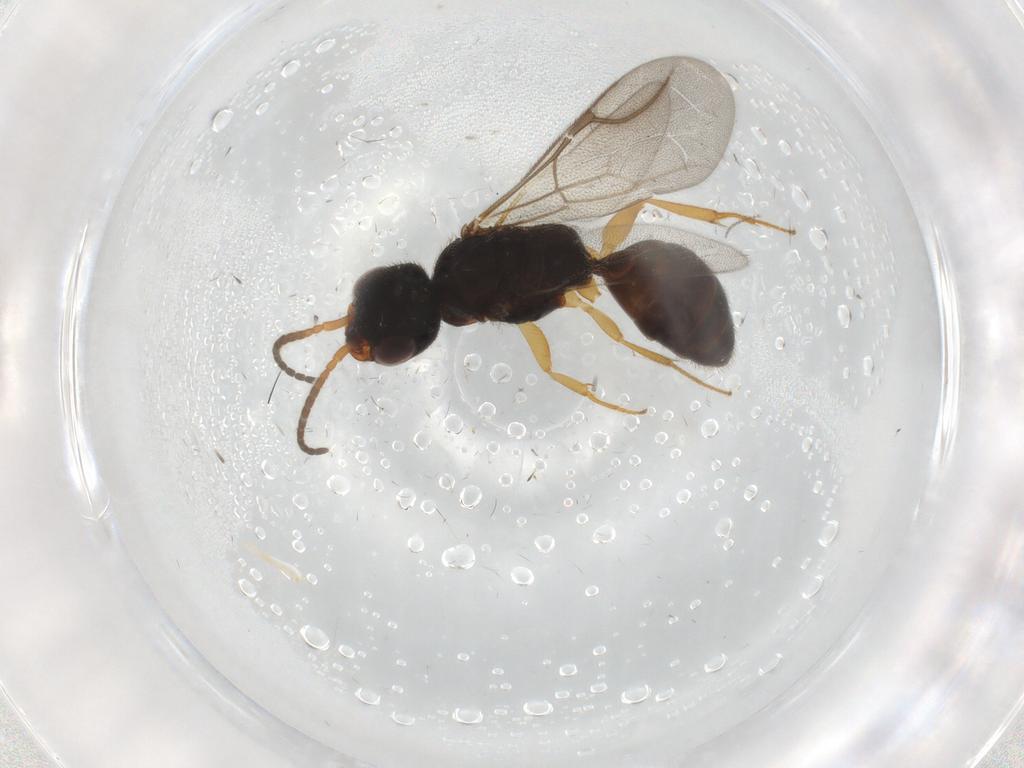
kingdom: Animalia
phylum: Arthropoda
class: Insecta
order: Hymenoptera
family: Bethylidae
